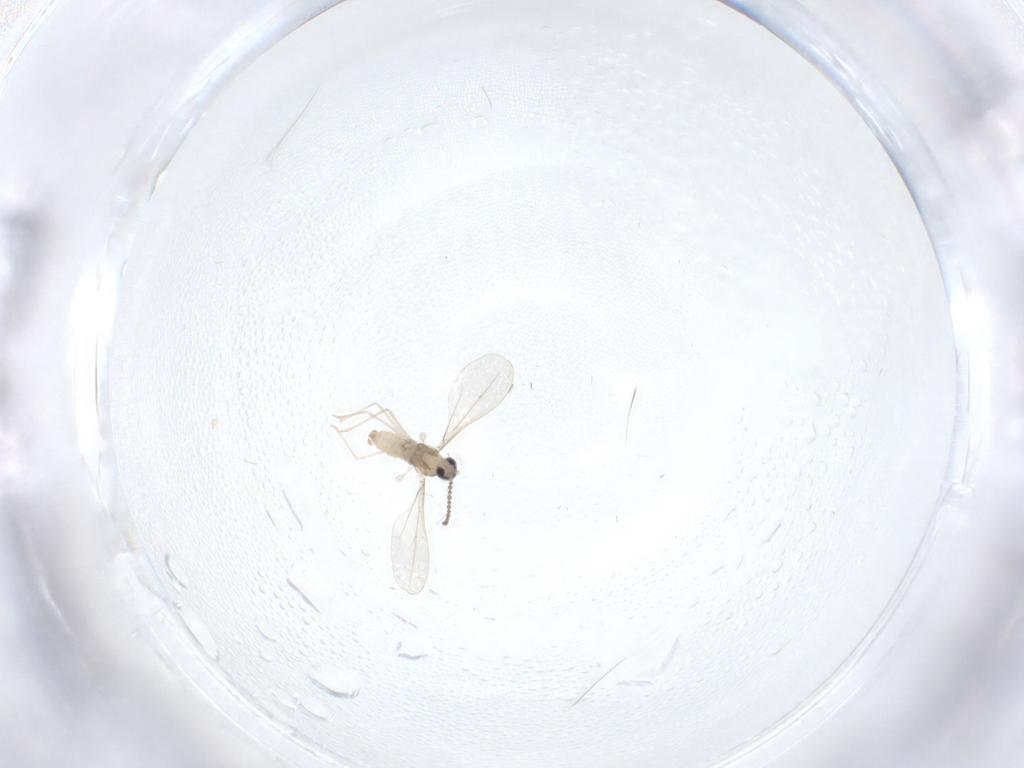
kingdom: Animalia
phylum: Arthropoda
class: Insecta
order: Diptera
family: Cecidomyiidae
